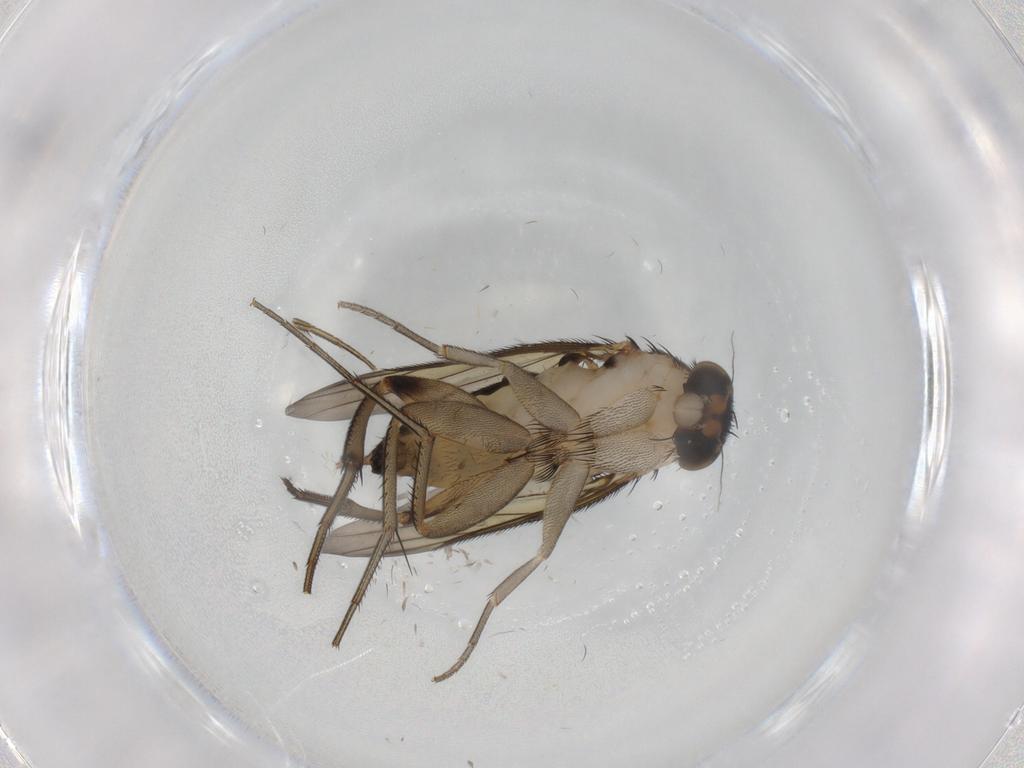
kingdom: Animalia
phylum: Arthropoda
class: Insecta
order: Diptera
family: Phoridae
